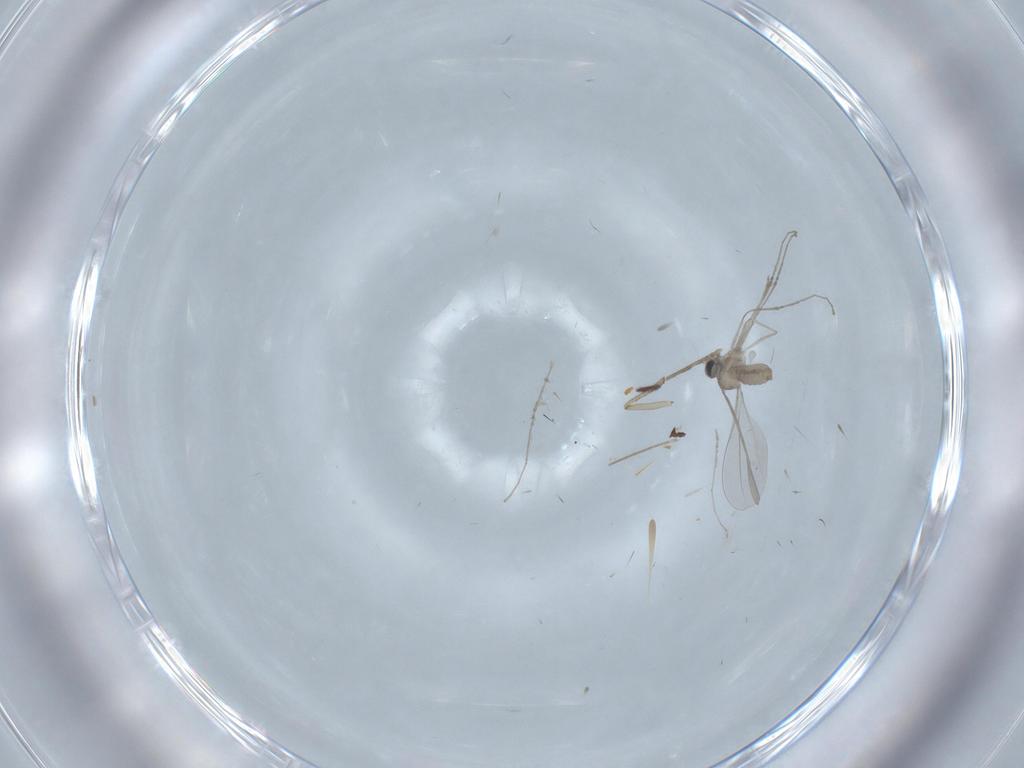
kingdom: Animalia
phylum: Arthropoda
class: Insecta
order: Diptera
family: Cecidomyiidae
